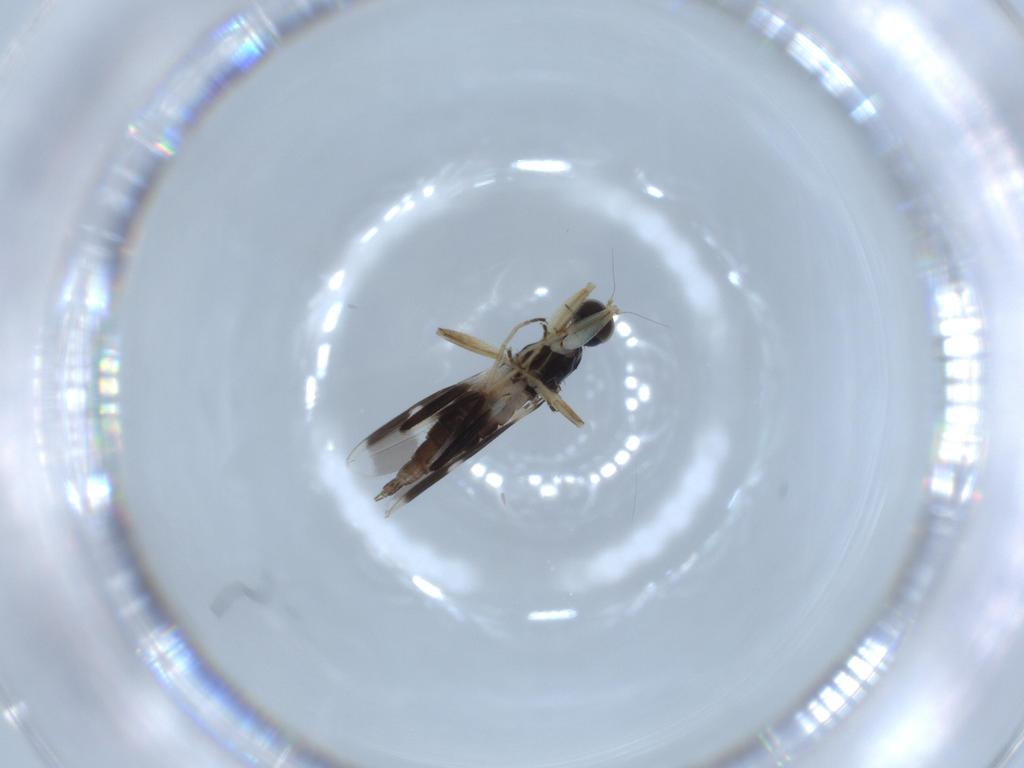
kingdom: Animalia
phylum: Arthropoda
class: Insecta
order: Diptera
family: Hybotidae
